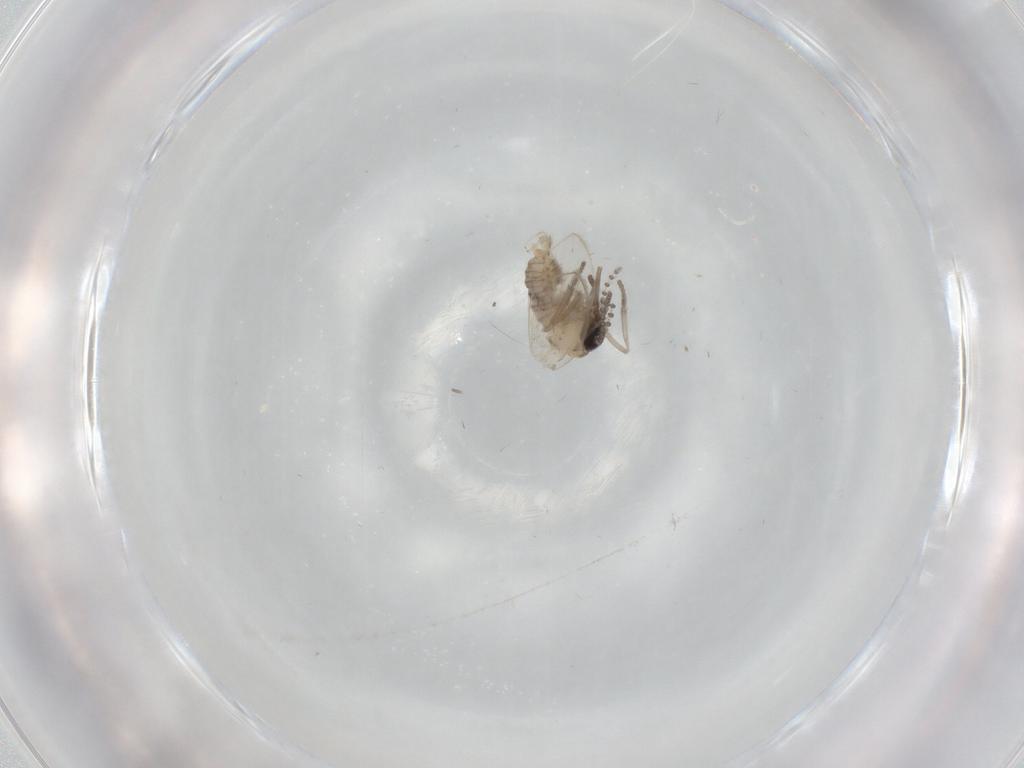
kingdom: Animalia
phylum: Arthropoda
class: Insecta
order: Diptera
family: Psychodidae
